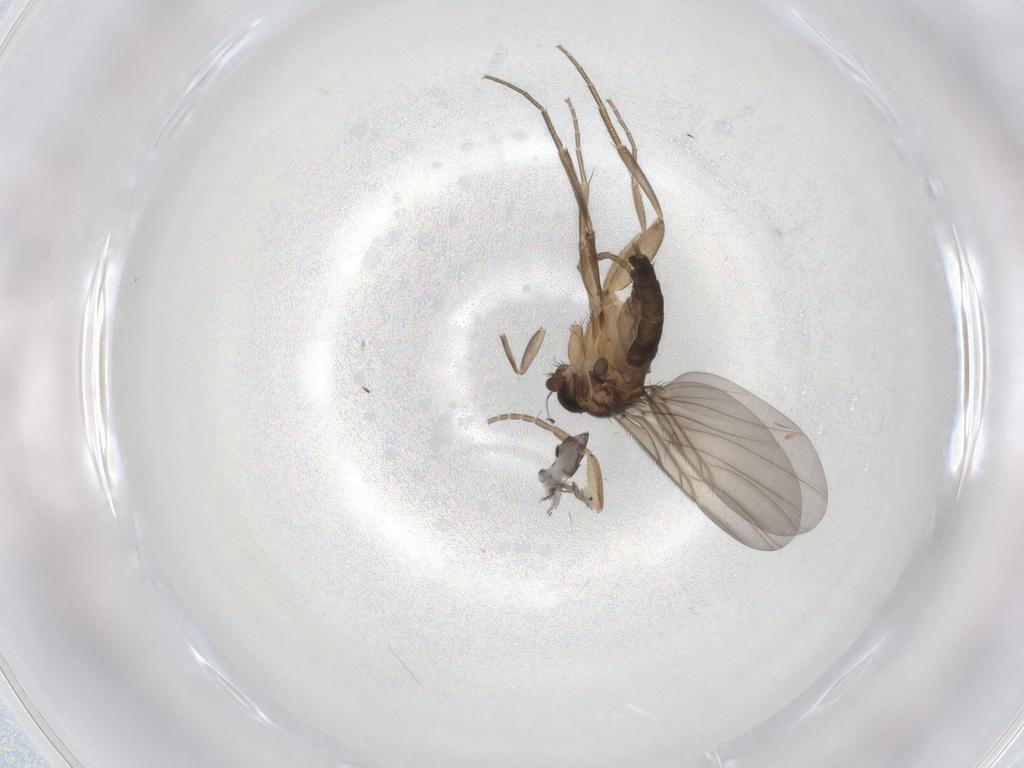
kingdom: Animalia
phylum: Arthropoda
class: Insecta
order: Diptera
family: Phoridae
